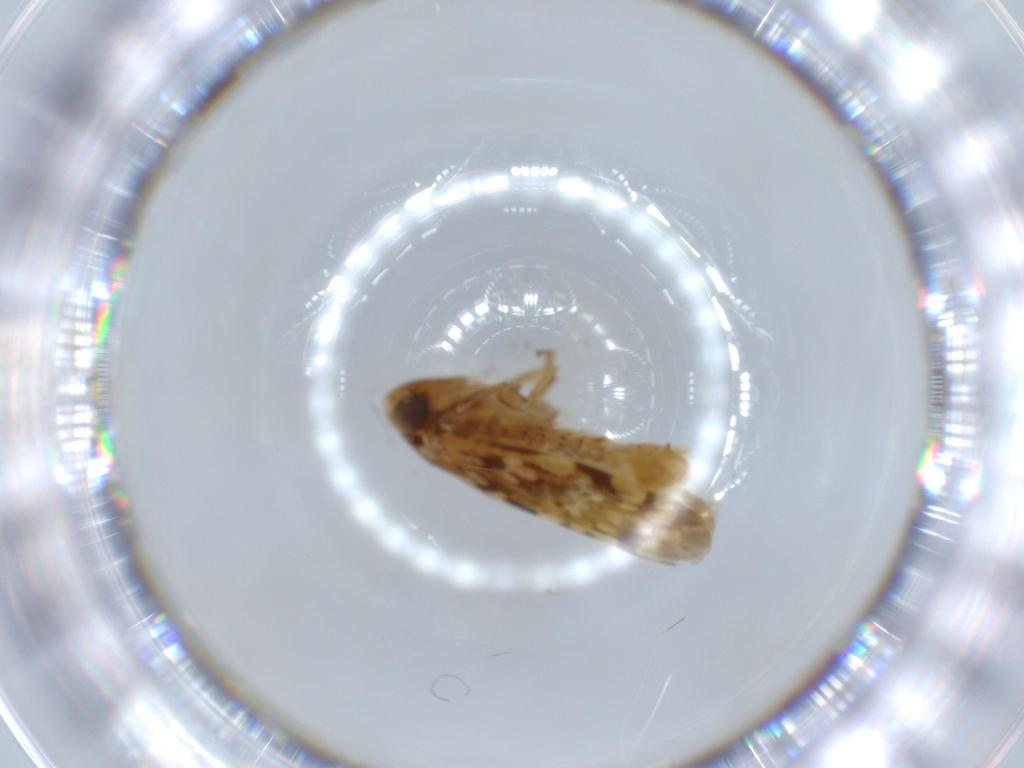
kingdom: Animalia
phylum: Arthropoda
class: Insecta
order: Hemiptera
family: Cicadellidae
